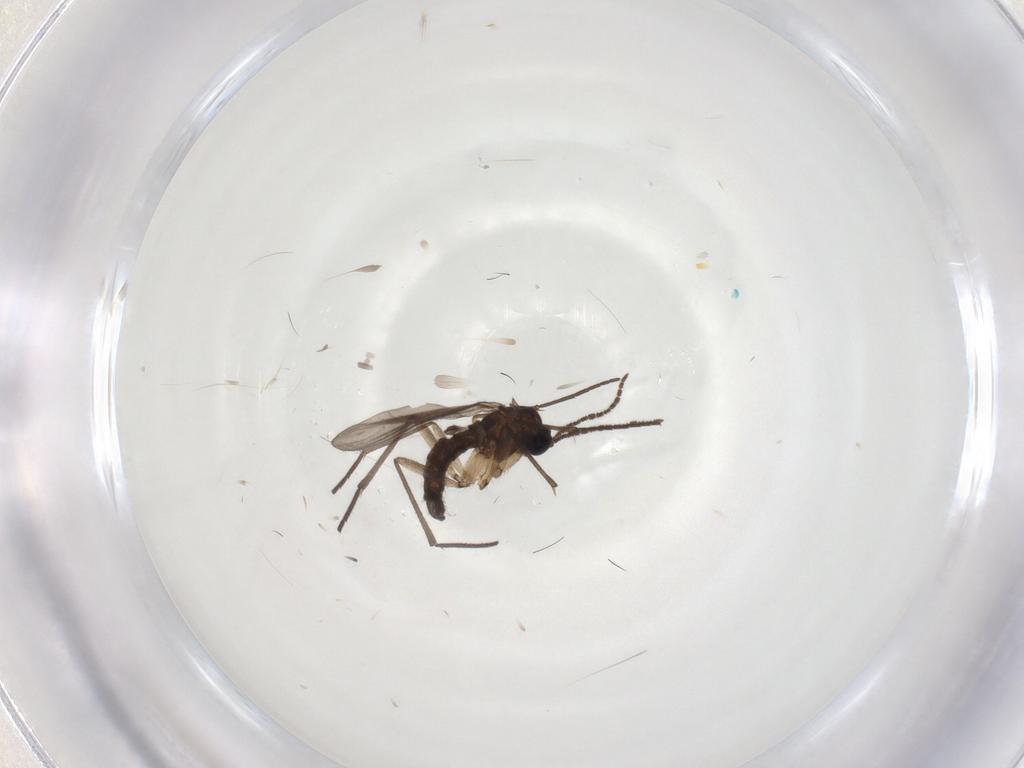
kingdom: Animalia
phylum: Arthropoda
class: Insecta
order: Diptera
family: Sciaridae
